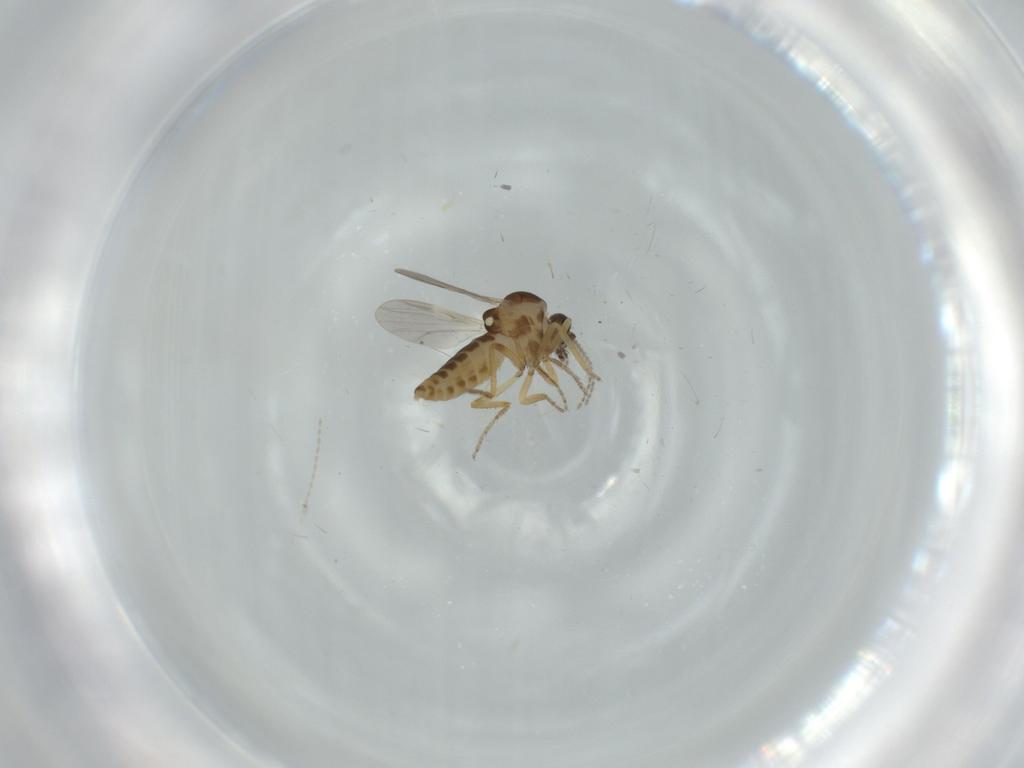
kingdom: Animalia
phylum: Arthropoda
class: Insecta
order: Diptera
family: Ceratopogonidae
